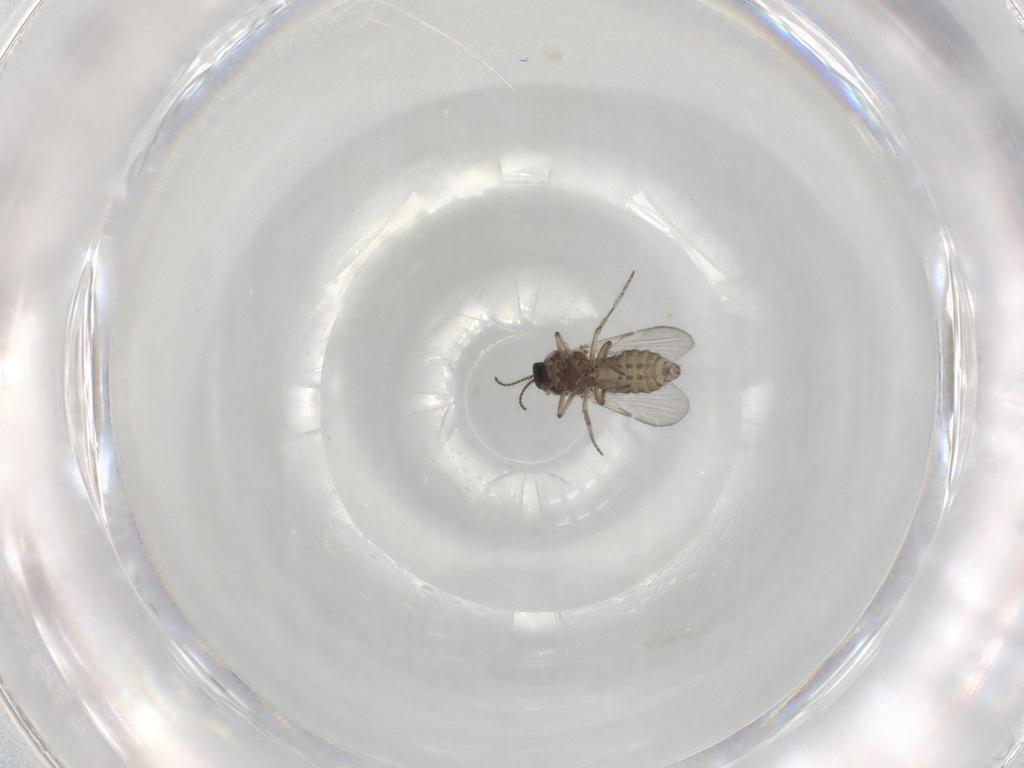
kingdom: Animalia
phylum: Arthropoda
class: Insecta
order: Diptera
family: Ceratopogonidae
